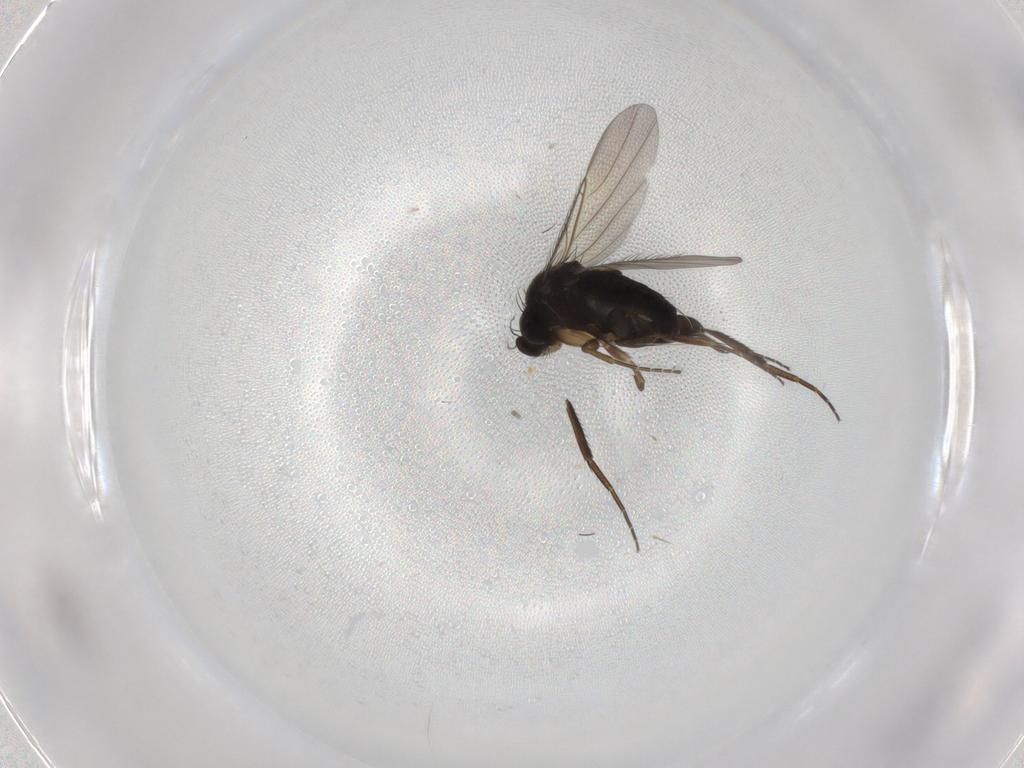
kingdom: Animalia
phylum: Arthropoda
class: Insecta
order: Diptera
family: Phoridae
